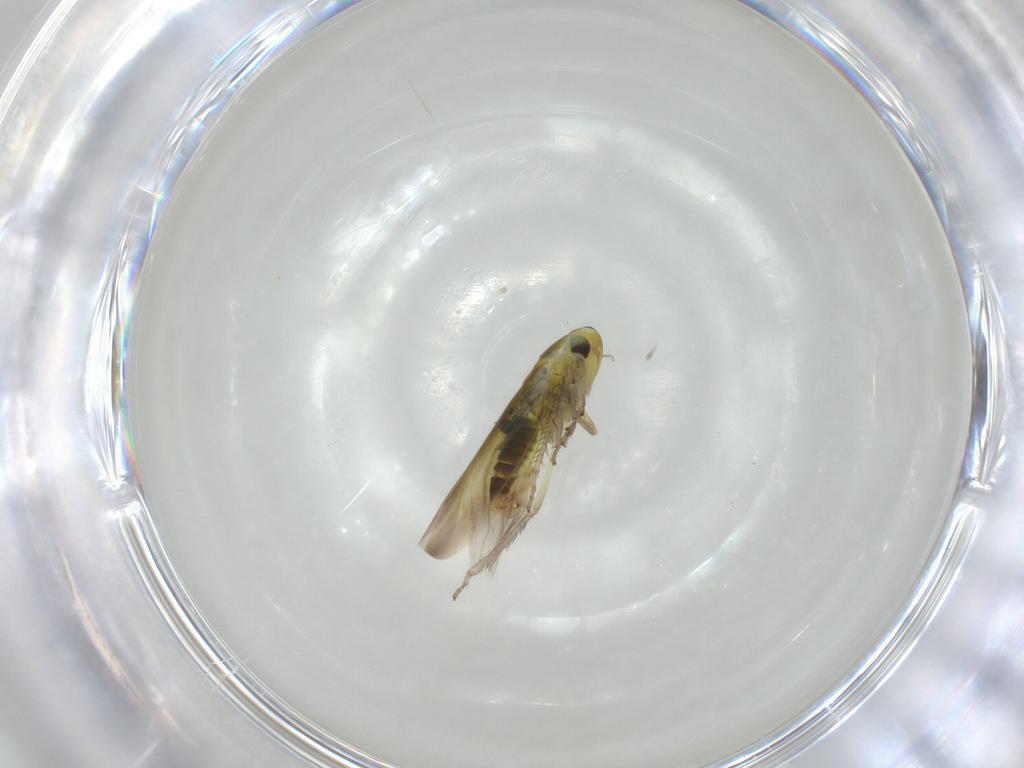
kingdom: Animalia
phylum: Arthropoda
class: Insecta
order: Hemiptera
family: Cicadellidae
